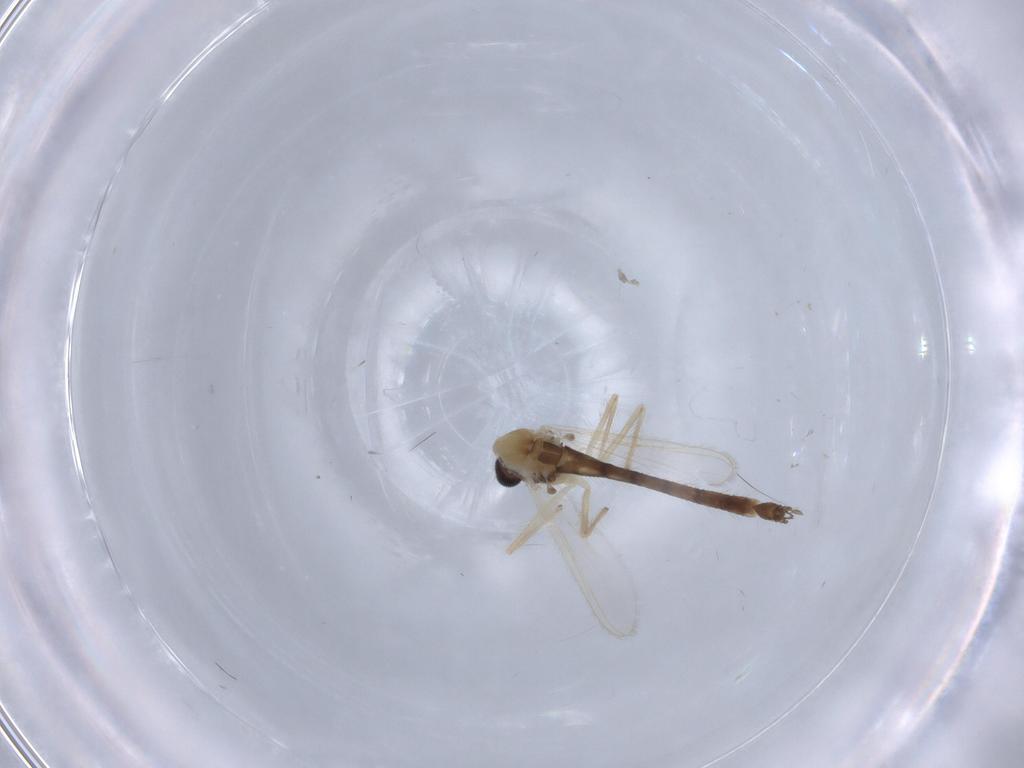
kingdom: Animalia
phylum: Arthropoda
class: Insecta
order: Diptera
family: Chironomidae
